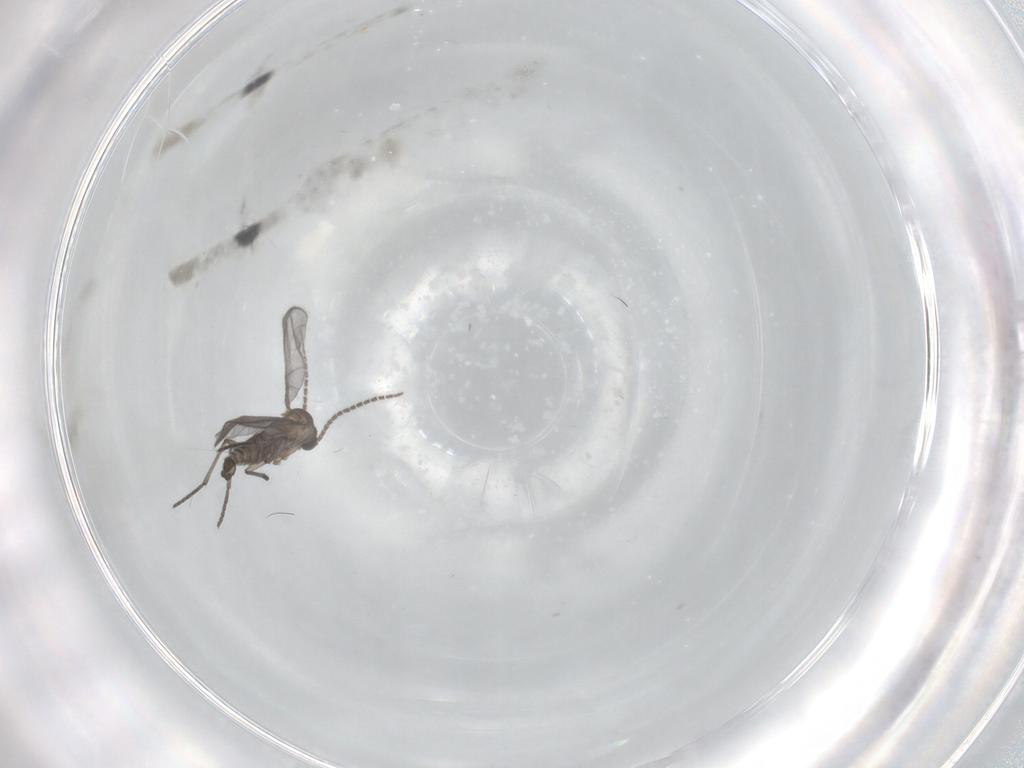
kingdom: Animalia
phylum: Arthropoda
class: Insecta
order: Diptera
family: Sciaridae
